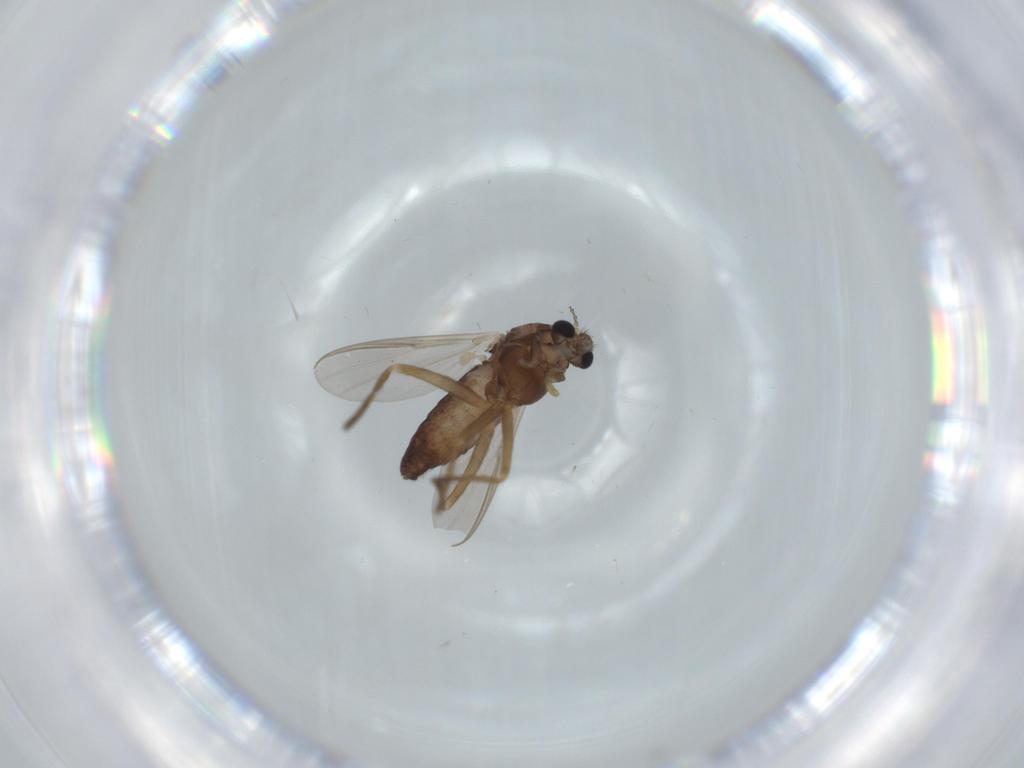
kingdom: Animalia
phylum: Arthropoda
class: Insecta
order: Diptera
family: Chironomidae
